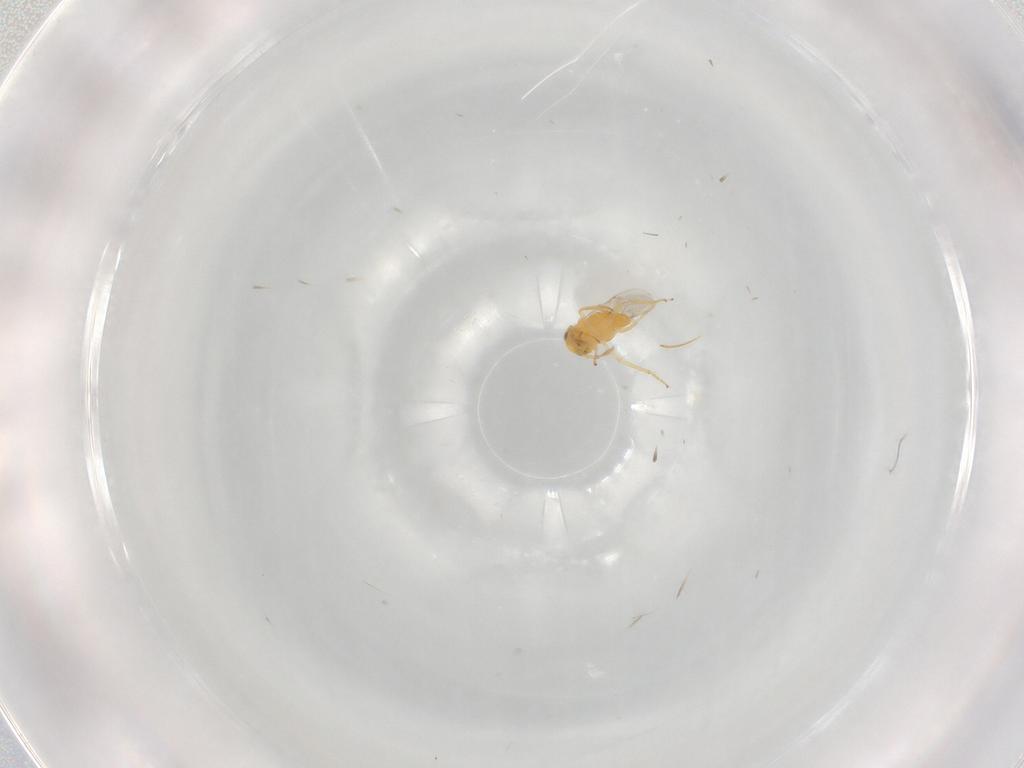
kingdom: Animalia
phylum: Arthropoda
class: Insecta
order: Hymenoptera
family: Encyrtidae
